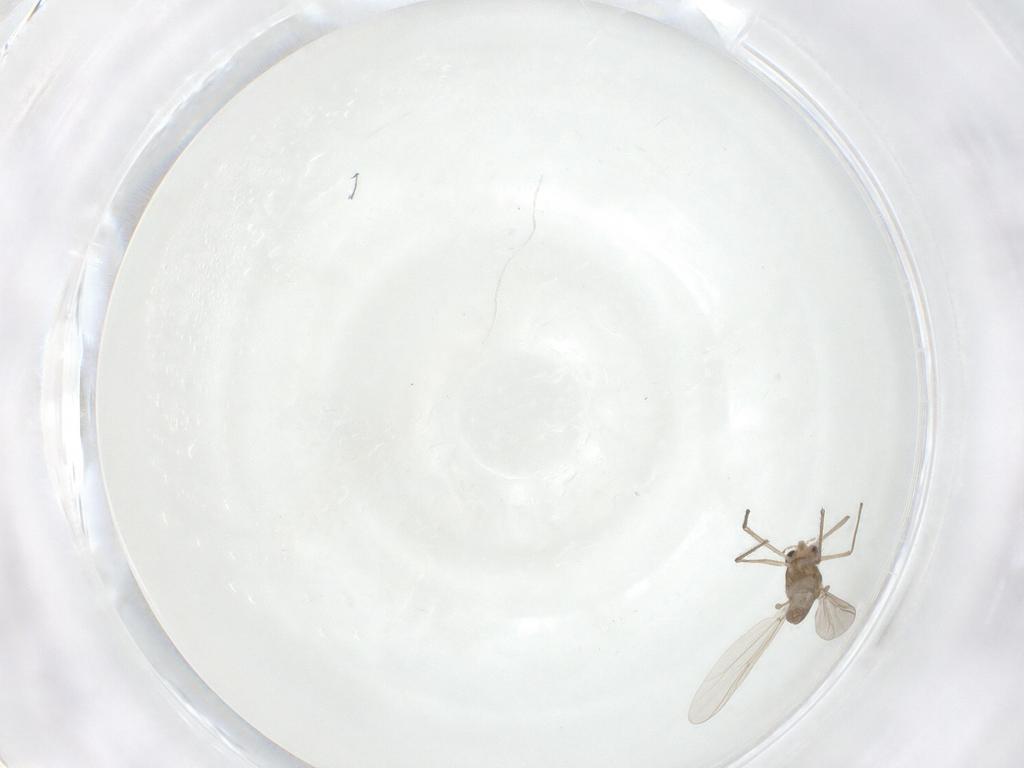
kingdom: Animalia
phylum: Arthropoda
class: Insecta
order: Diptera
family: Chironomidae
